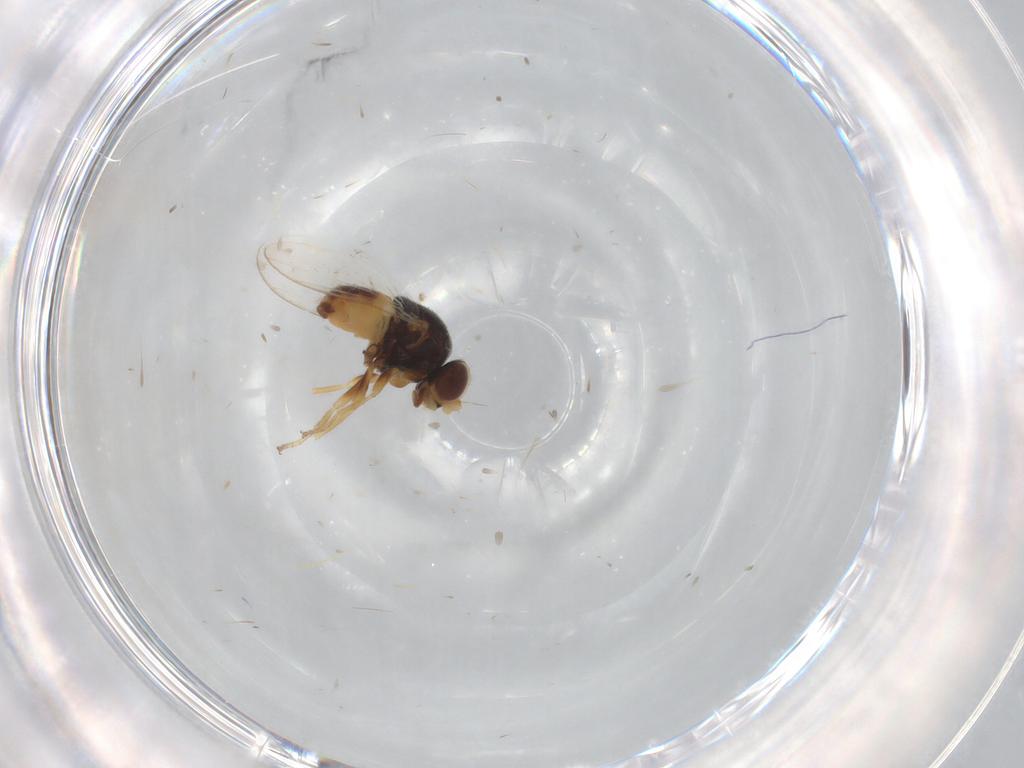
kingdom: Animalia
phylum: Arthropoda
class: Insecta
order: Diptera
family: Chloropidae
